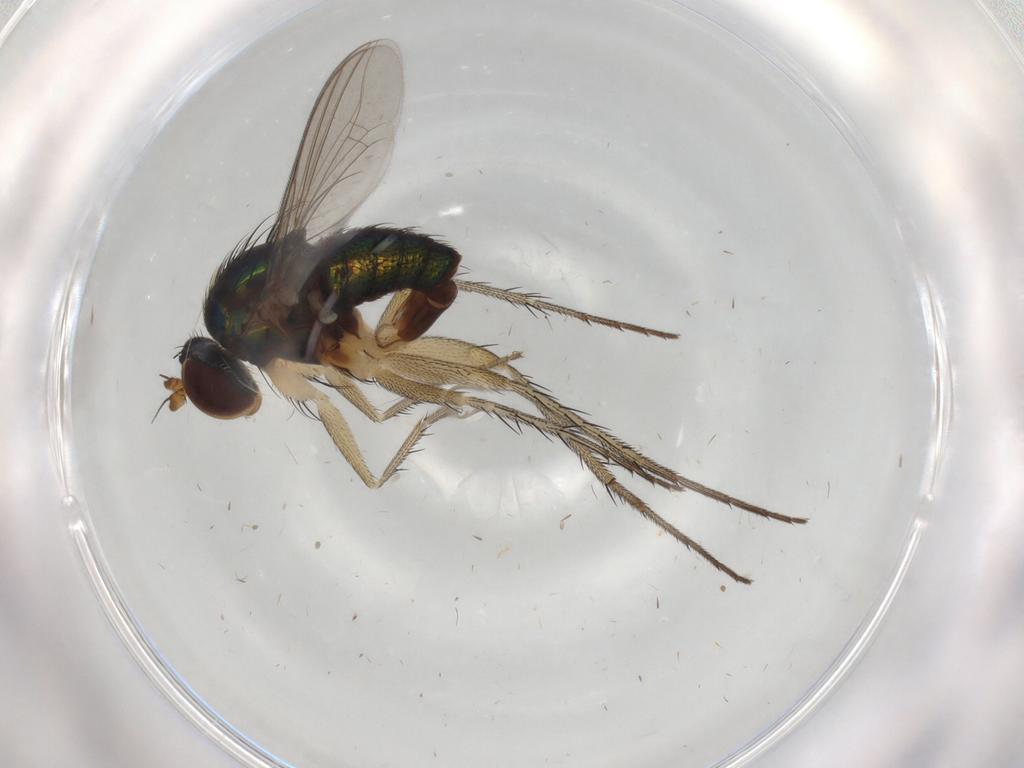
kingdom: Animalia
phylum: Arthropoda
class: Insecta
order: Diptera
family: Dolichopodidae
